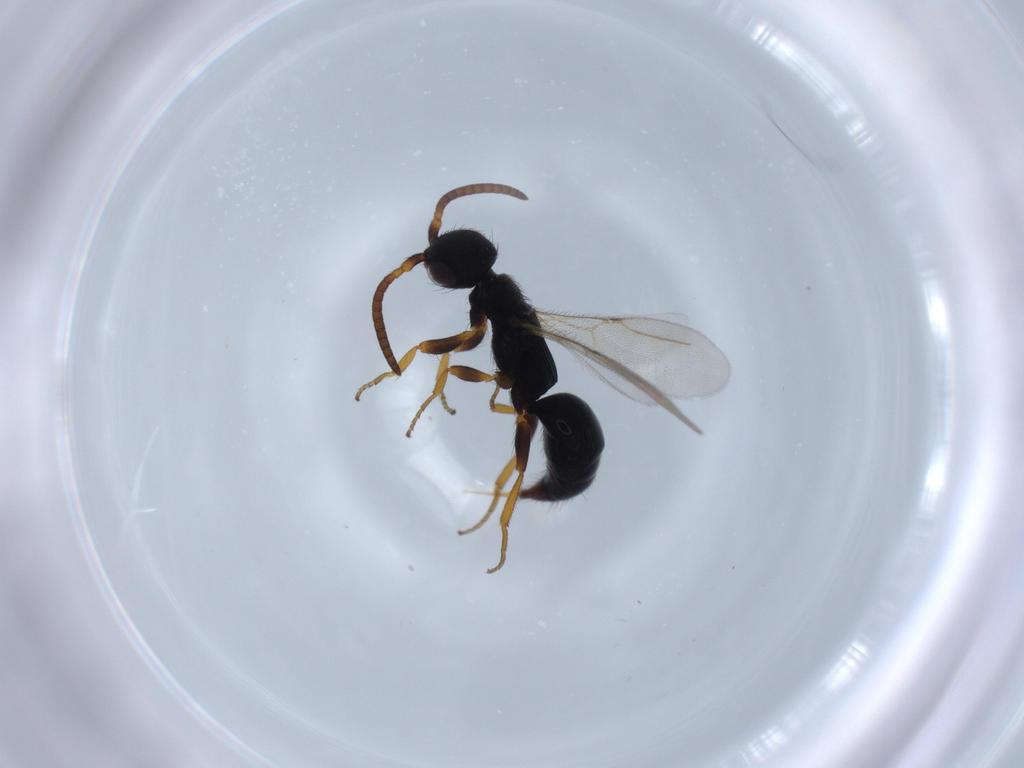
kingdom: Animalia
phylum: Arthropoda
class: Insecta
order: Hymenoptera
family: Bethylidae
